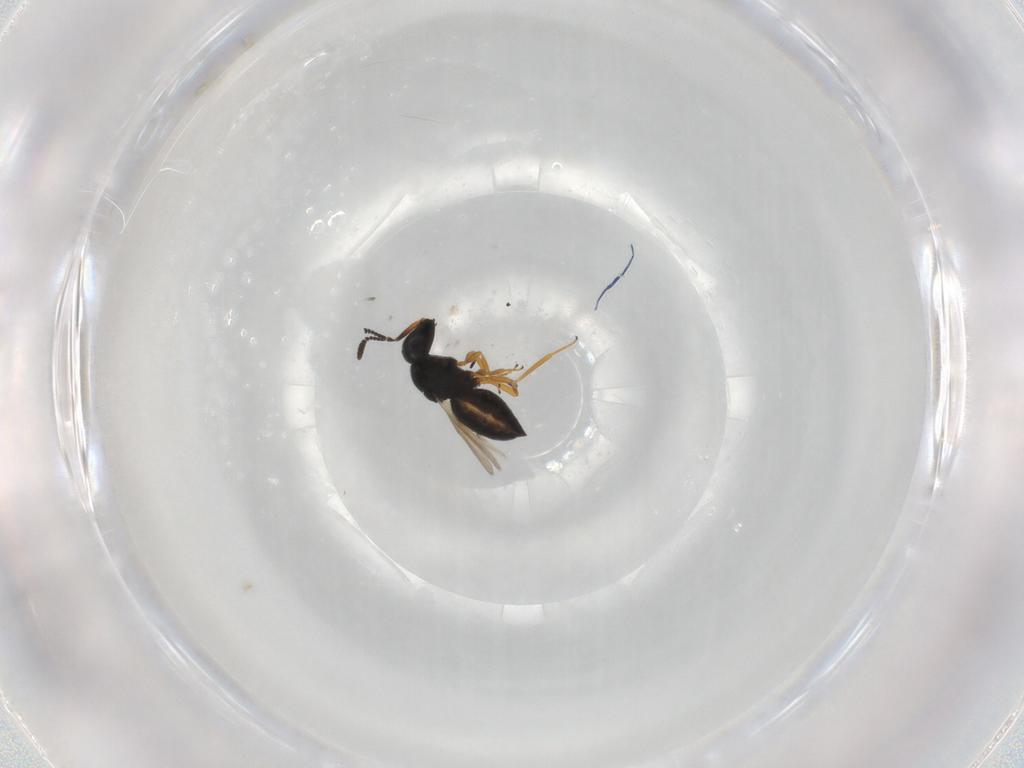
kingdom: Animalia
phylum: Arthropoda
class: Insecta
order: Hymenoptera
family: Scelionidae
